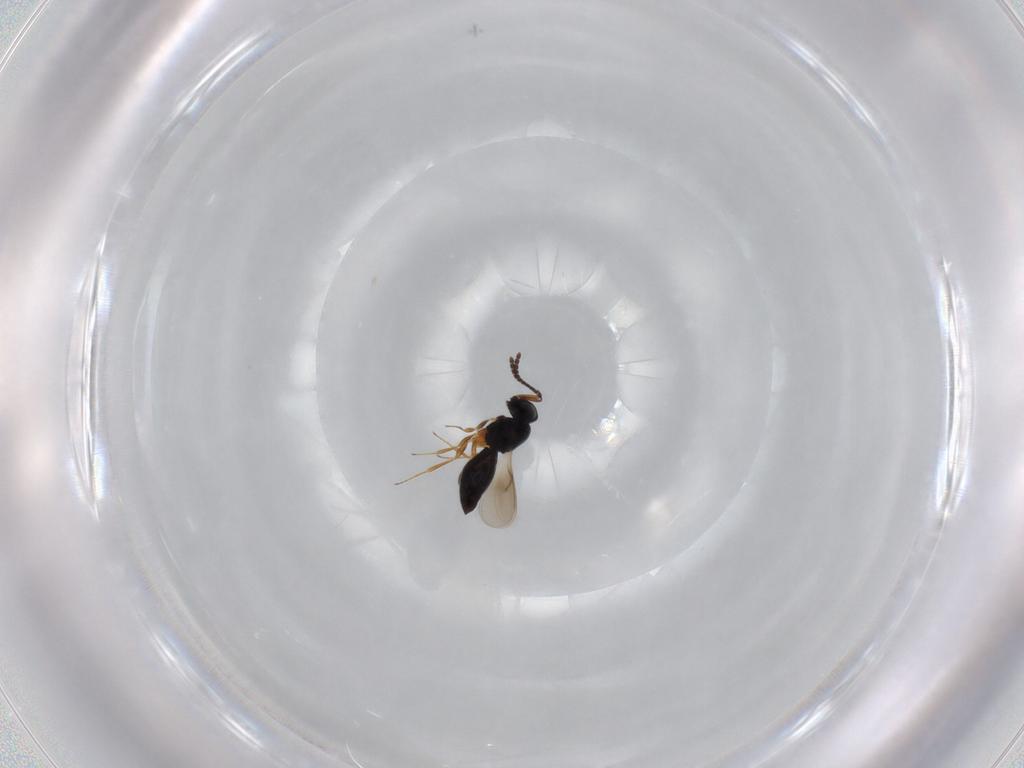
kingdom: Animalia
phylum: Arthropoda
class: Insecta
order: Hymenoptera
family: Scelionidae
